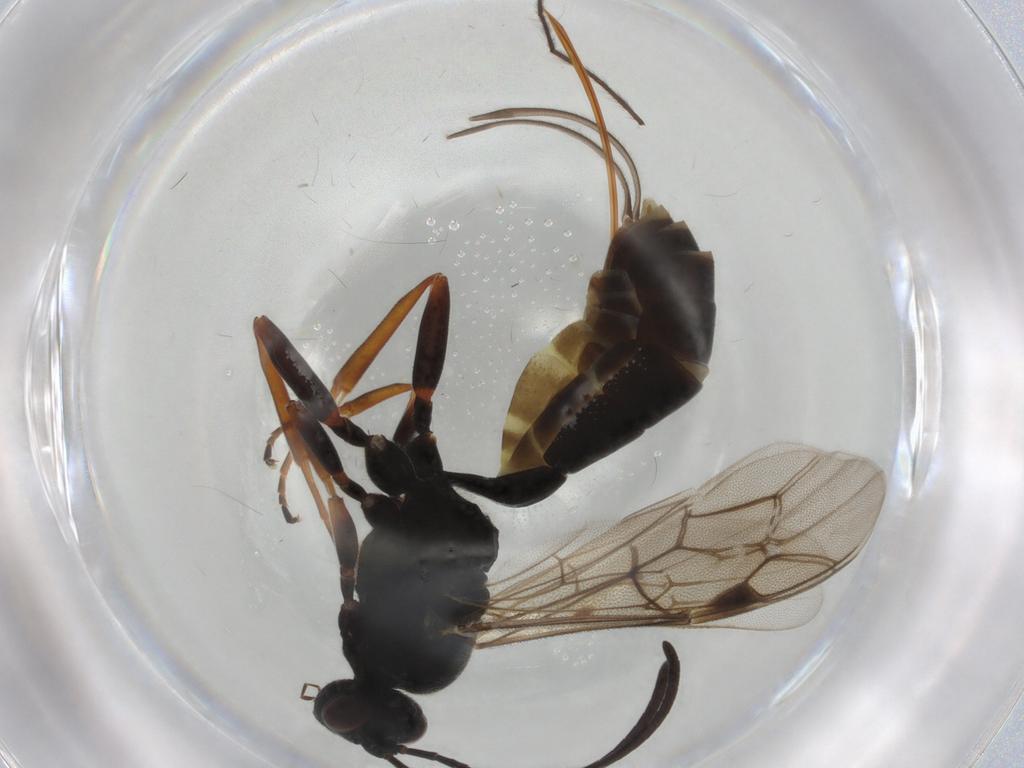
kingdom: Animalia
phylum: Arthropoda
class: Insecta
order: Hymenoptera
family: Ichneumonidae
